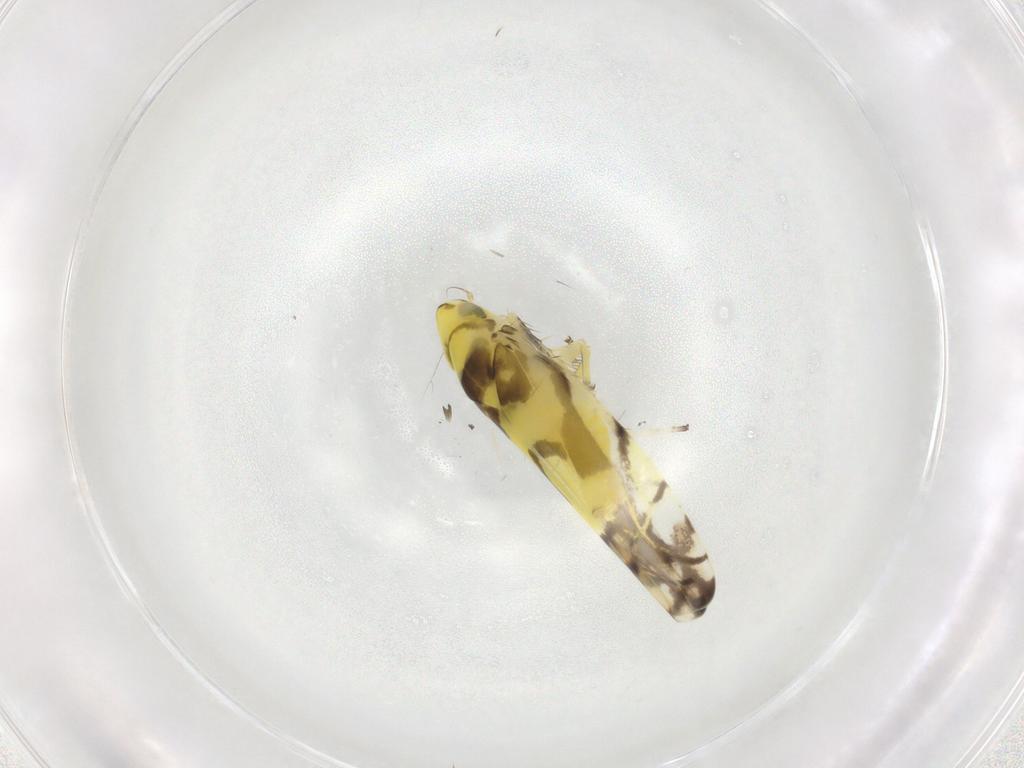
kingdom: Animalia
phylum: Arthropoda
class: Insecta
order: Hemiptera
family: Cicadellidae
